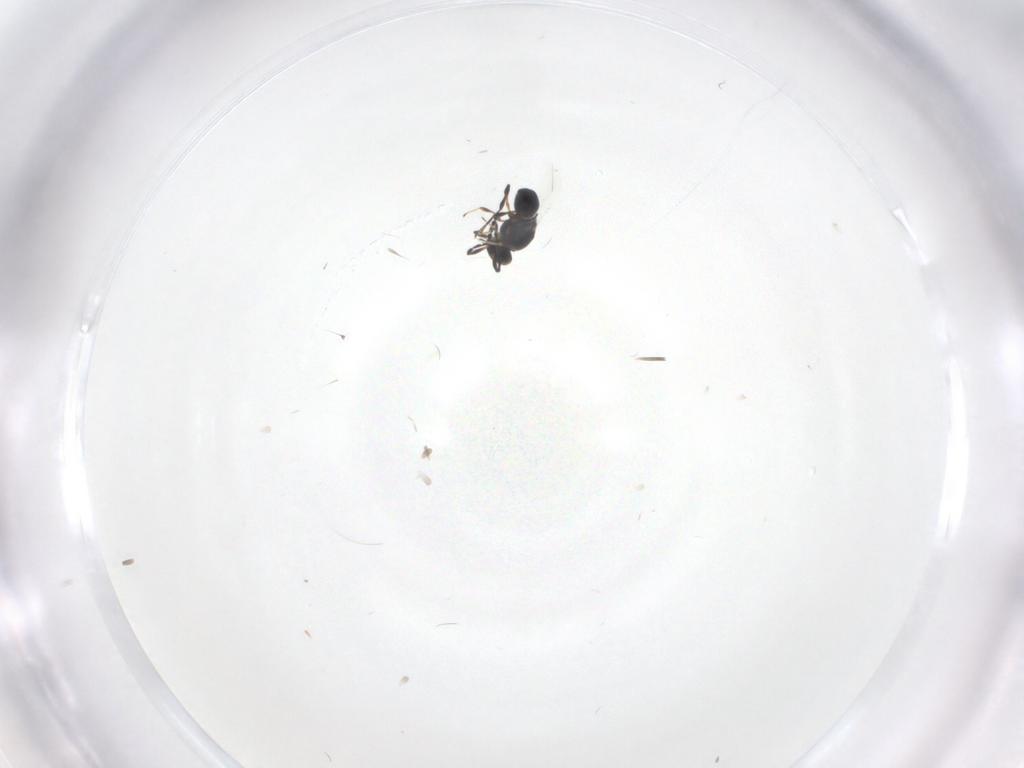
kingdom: Animalia
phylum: Arthropoda
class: Insecta
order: Hymenoptera
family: Platygastridae
